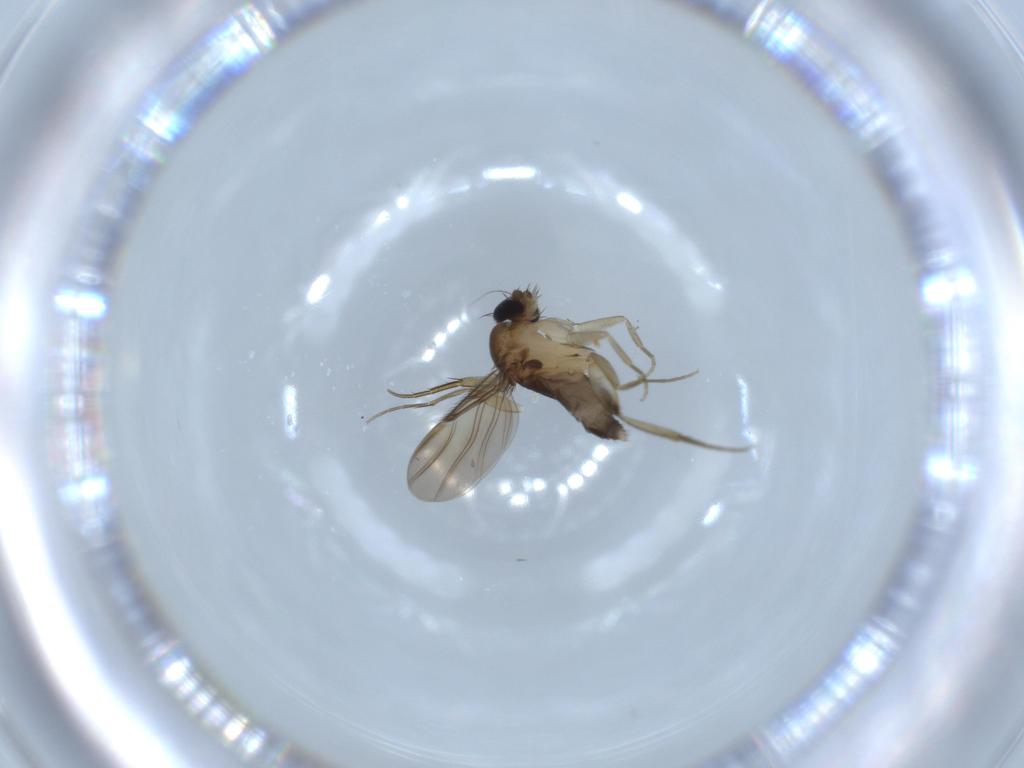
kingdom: Animalia
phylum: Arthropoda
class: Insecta
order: Diptera
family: Phoridae
